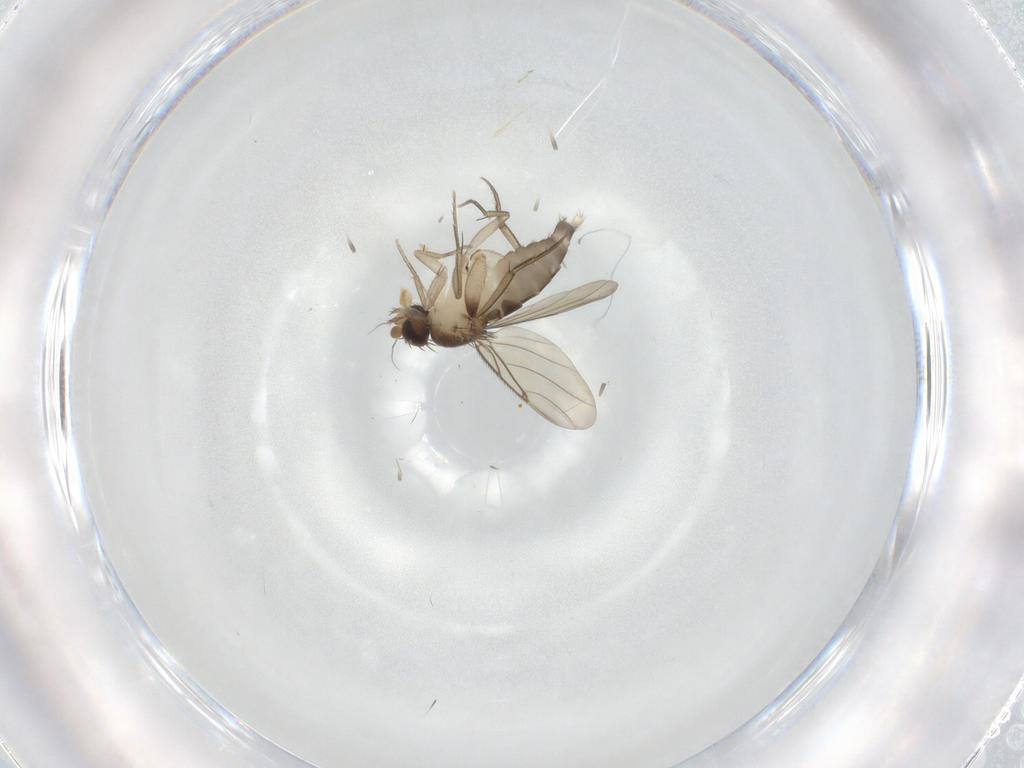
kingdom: Animalia
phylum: Arthropoda
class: Insecta
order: Diptera
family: Phoridae
